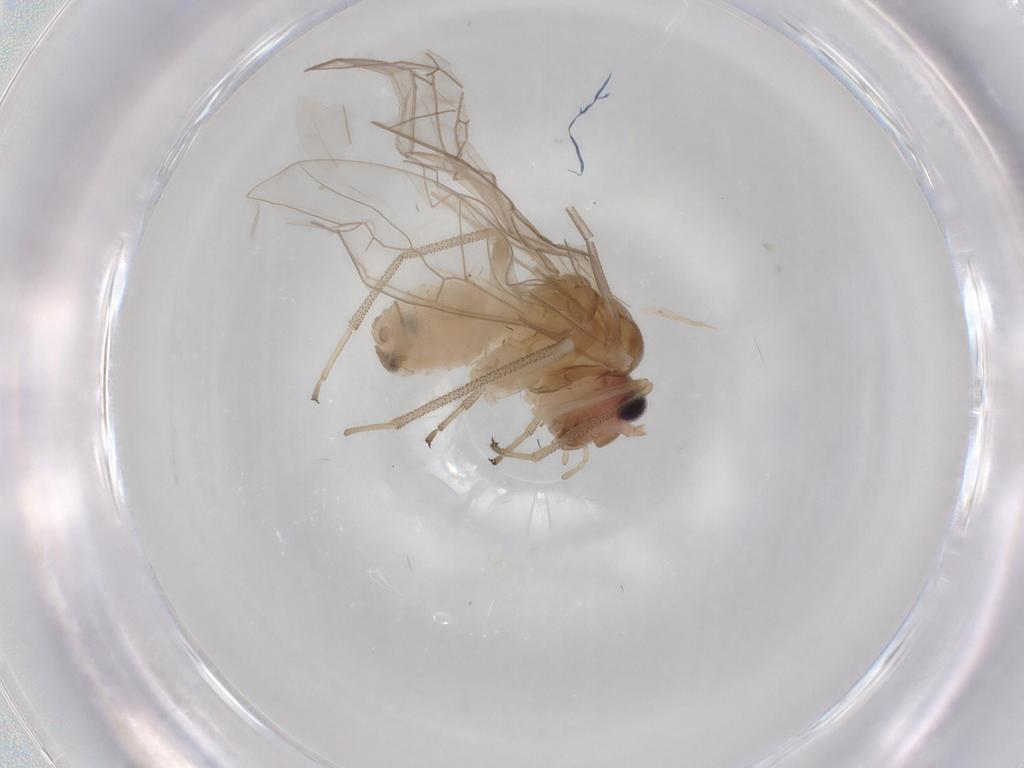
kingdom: Animalia
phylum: Arthropoda
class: Insecta
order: Psocodea
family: Stenopsocidae
